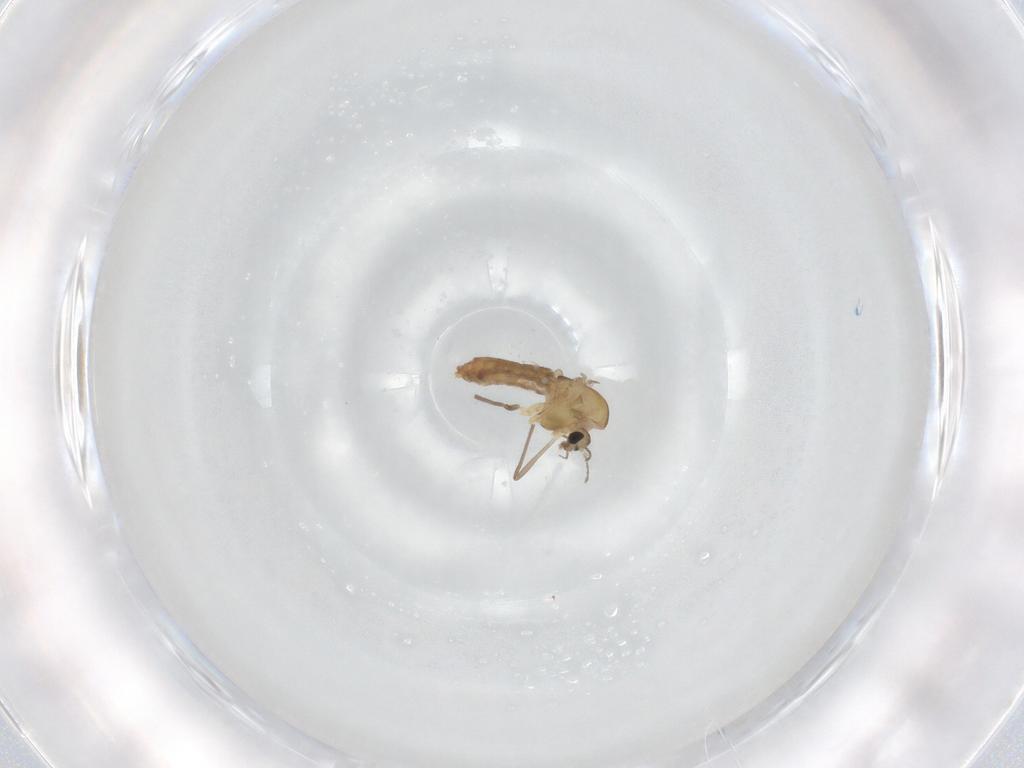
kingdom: Animalia
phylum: Arthropoda
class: Insecta
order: Diptera
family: Chironomidae
